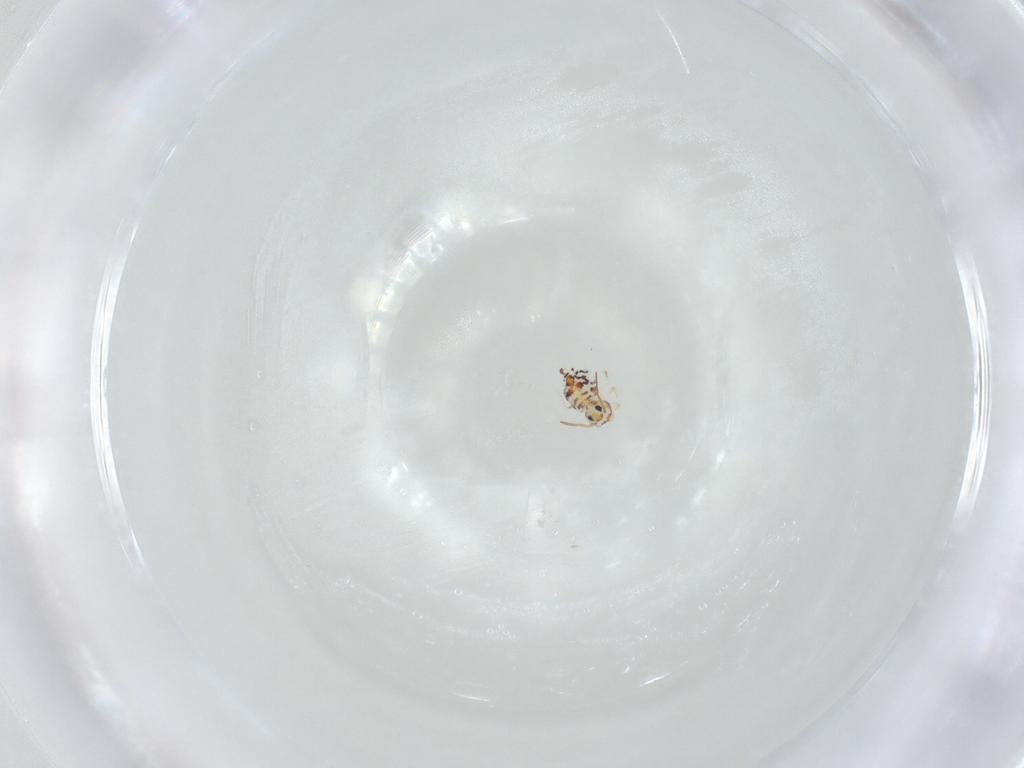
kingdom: Animalia
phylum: Arthropoda
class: Collembola
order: Symphypleona
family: Bourletiellidae
